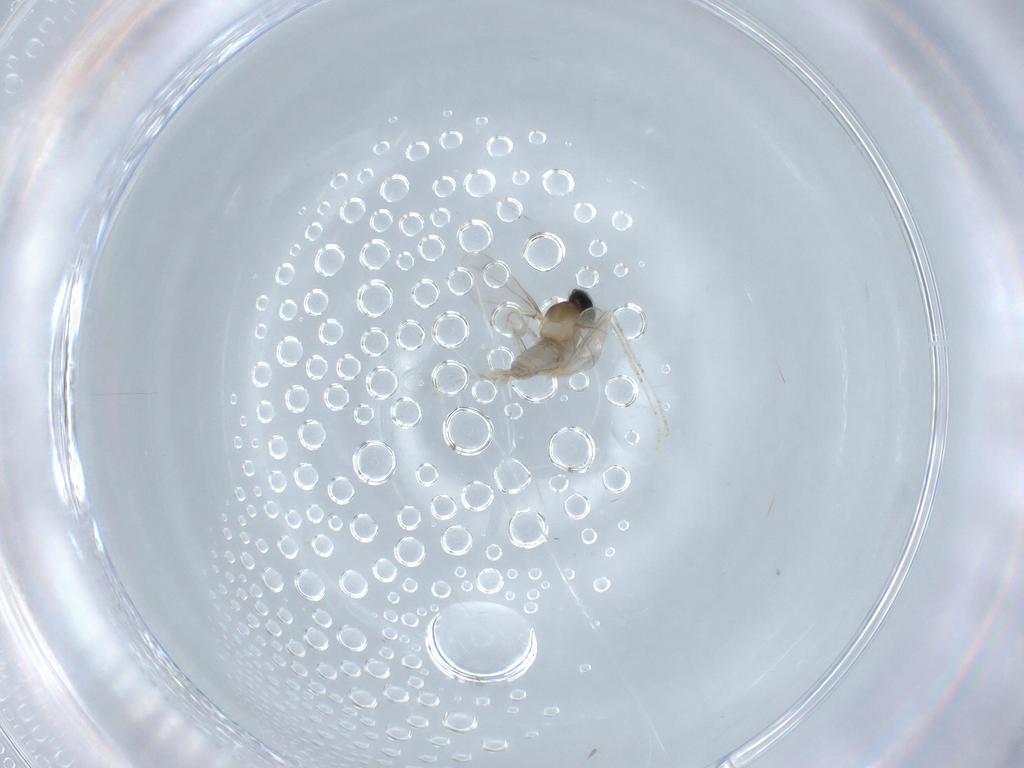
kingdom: Animalia
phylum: Arthropoda
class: Insecta
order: Diptera
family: Cecidomyiidae
